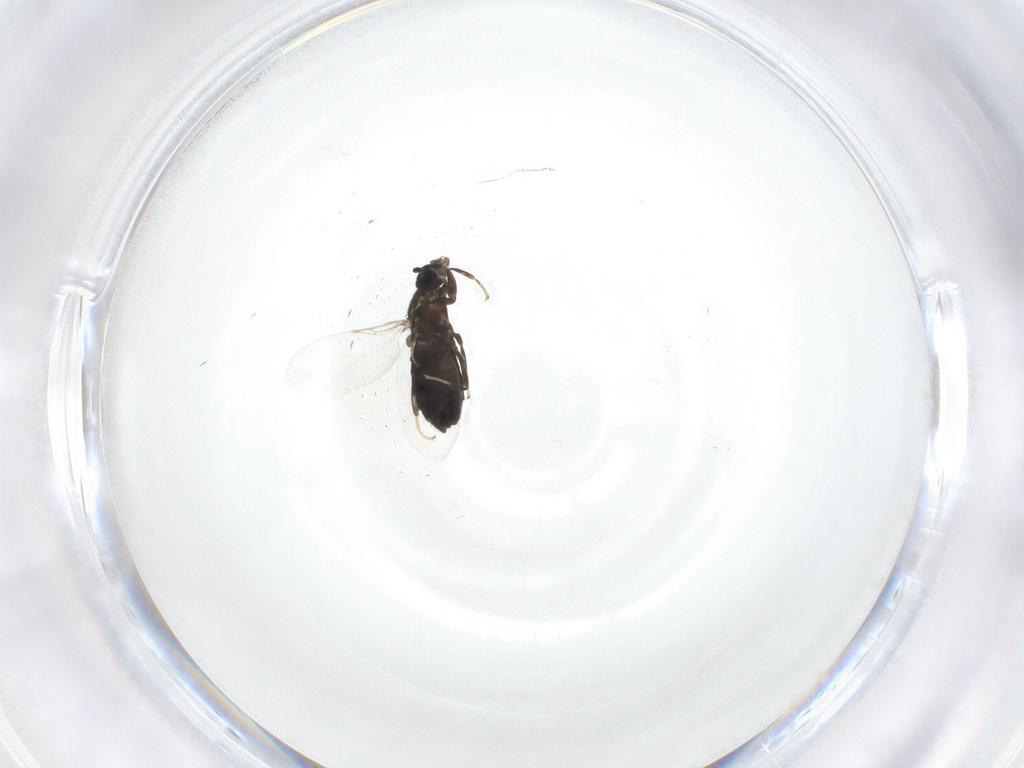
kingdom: Animalia
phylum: Arthropoda
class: Insecta
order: Diptera
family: Scatopsidae
